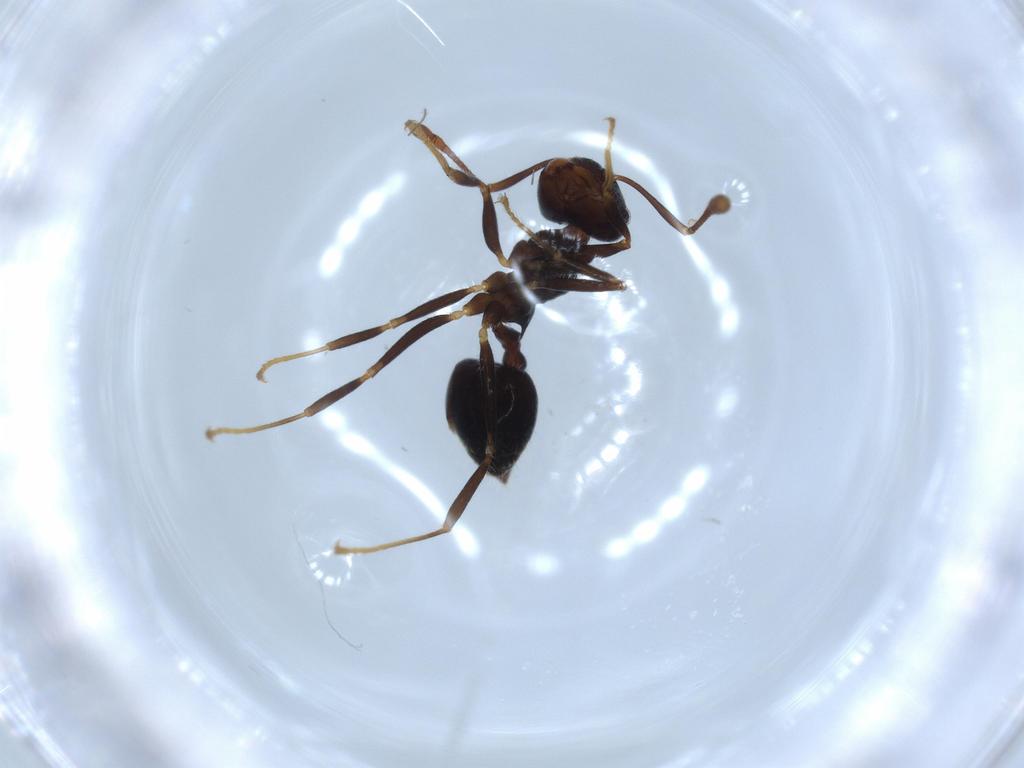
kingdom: Animalia
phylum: Arthropoda
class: Insecta
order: Hymenoptera
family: Formicidae
